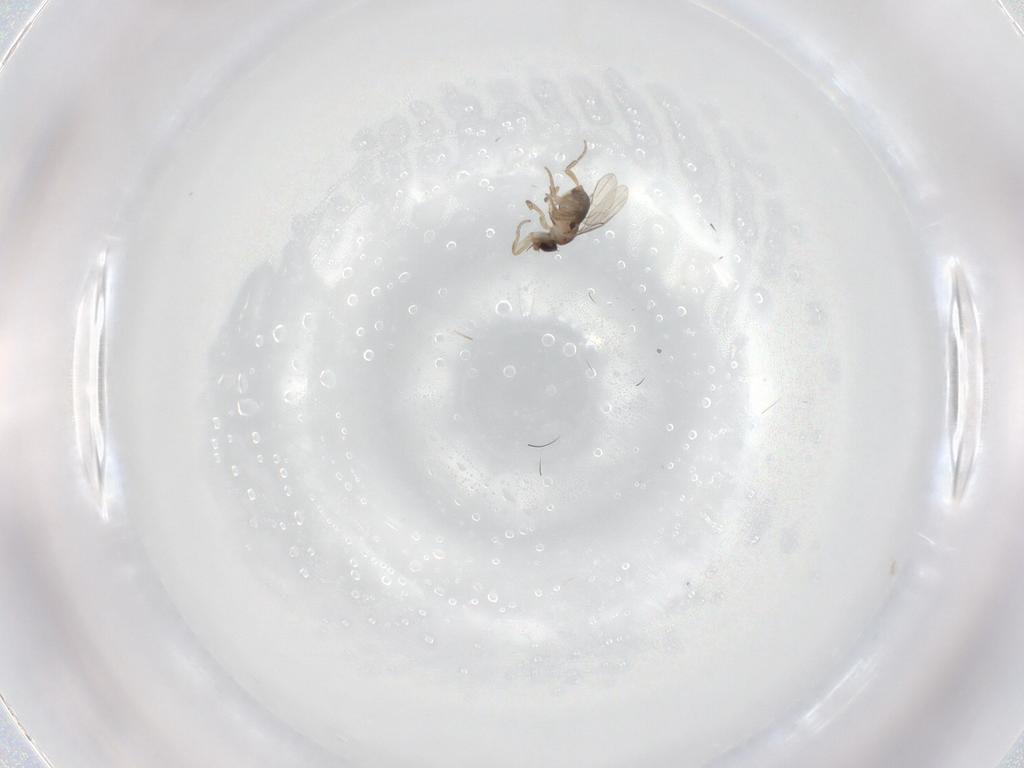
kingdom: Animalia
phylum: Arthropoda
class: Insecta
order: Diptera
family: Phoridae
